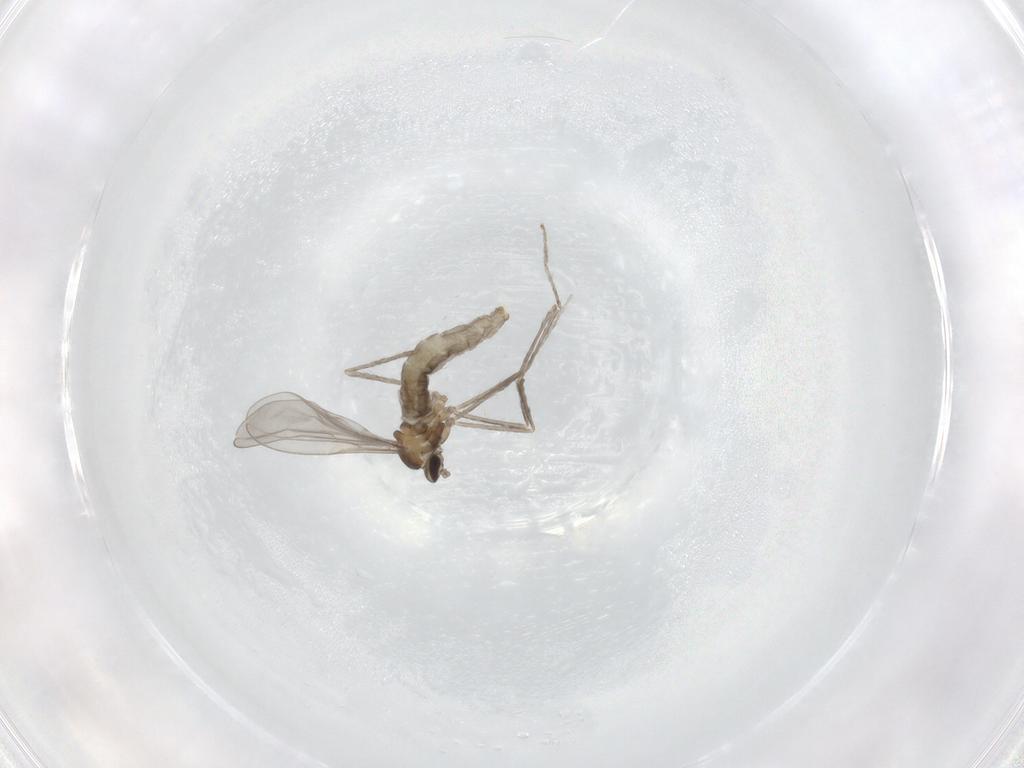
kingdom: Animalia
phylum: Arthropoda
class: Insecta
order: Diptera
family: Cecidomyiidae
